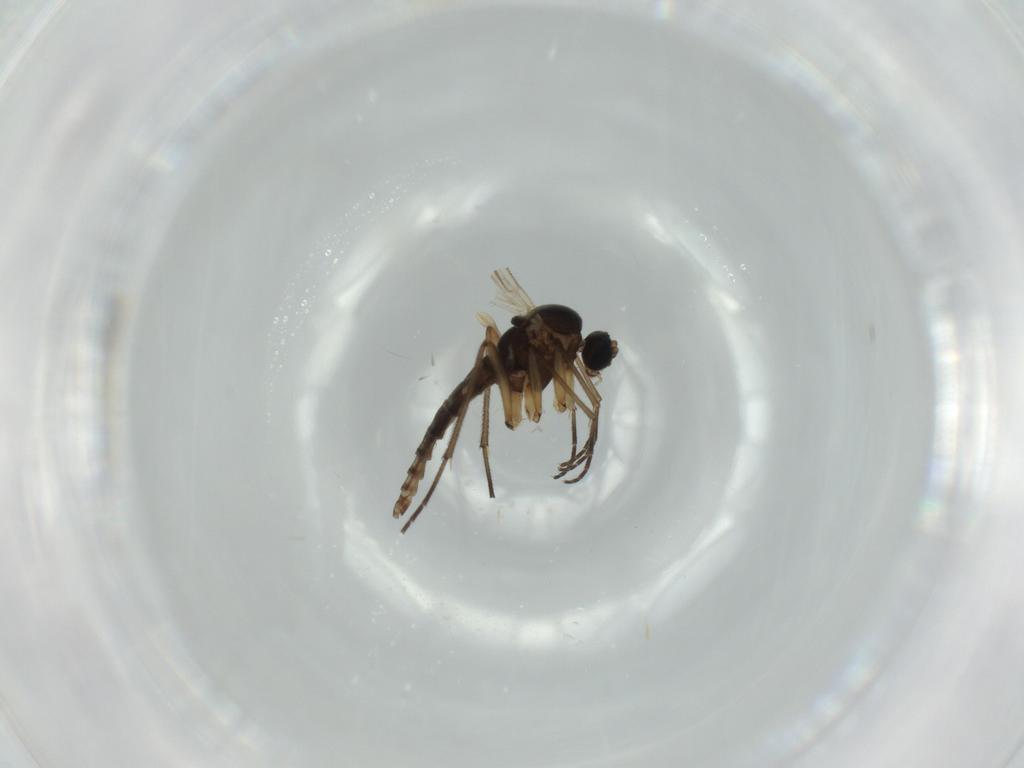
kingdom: Animalia
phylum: Arthropoda
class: Insecta
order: Diptera
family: Sciaridae
